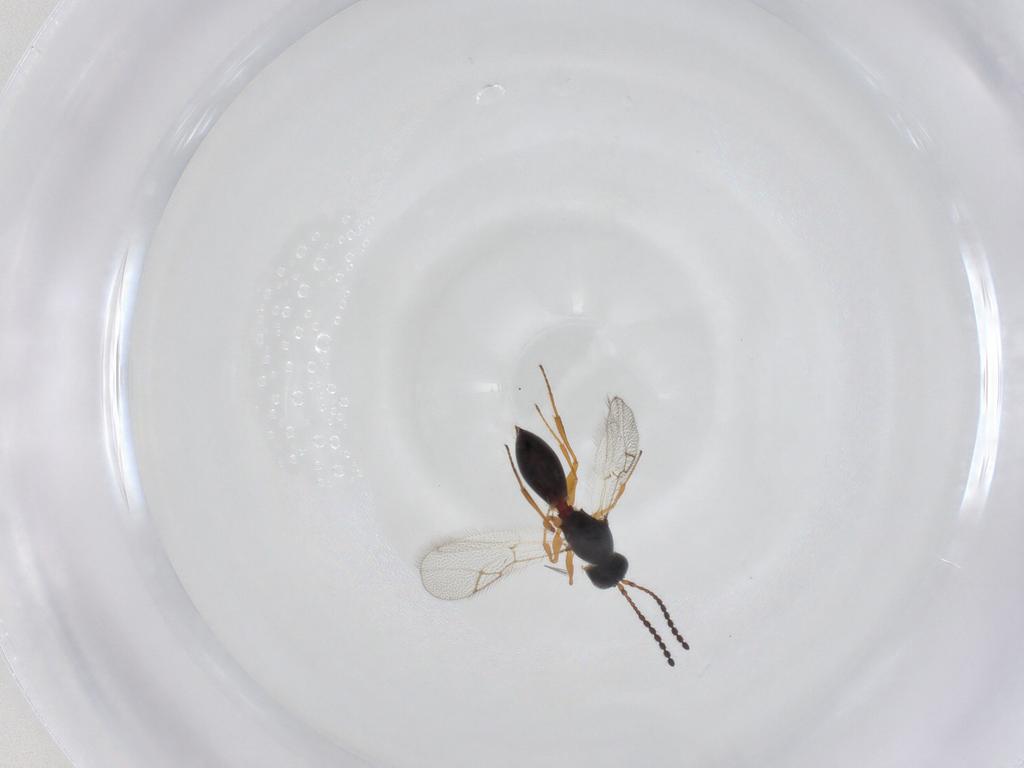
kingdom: Animalia
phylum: Arthropoda
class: Insecta
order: Hymenoptera
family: Figitidae
